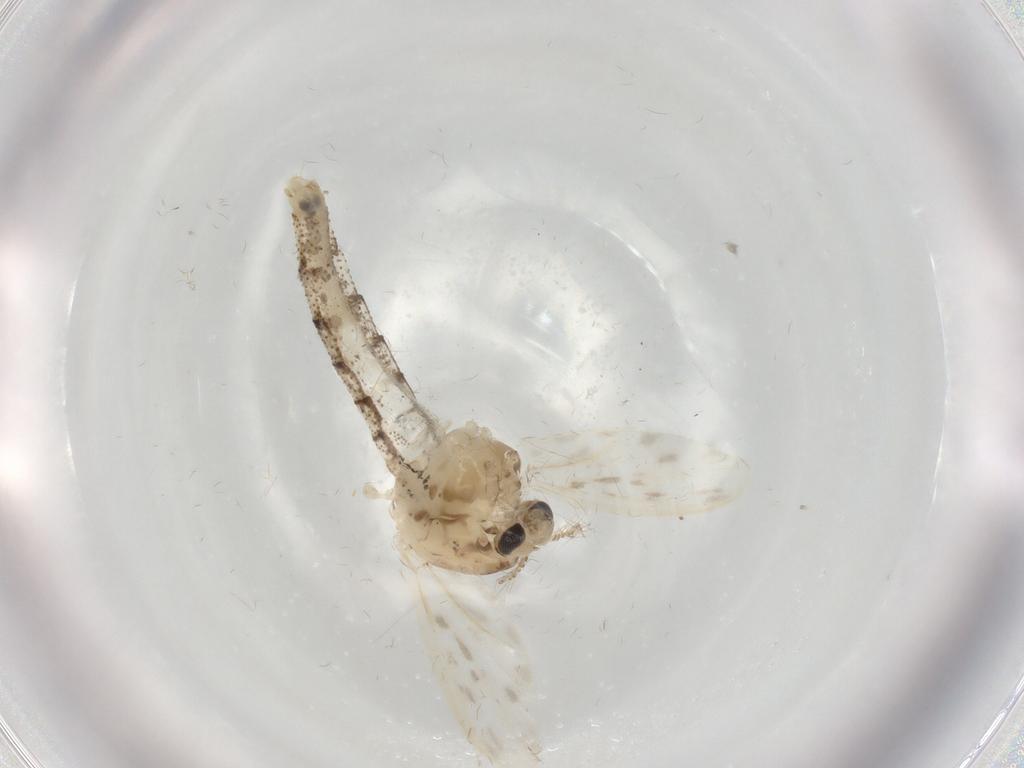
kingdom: Animalia
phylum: Arthropoda
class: Insecta
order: Diptera
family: Chaoboridae
